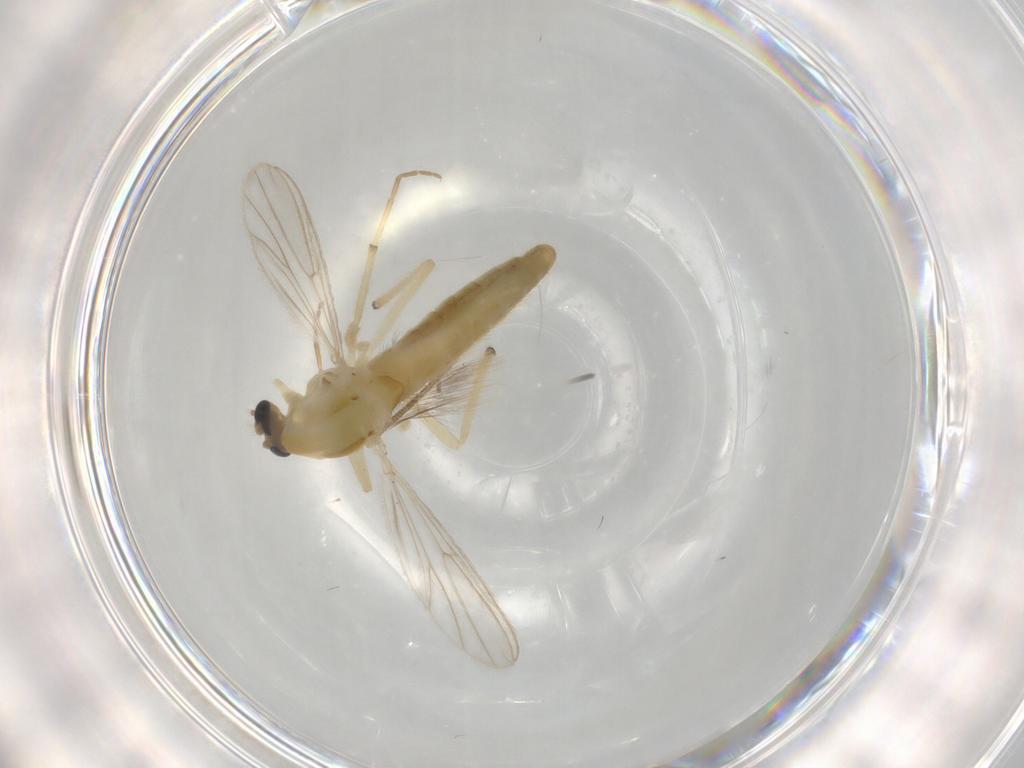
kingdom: Animalia
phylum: Arthropoda
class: Insecta
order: Diptera
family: Chironomidae
